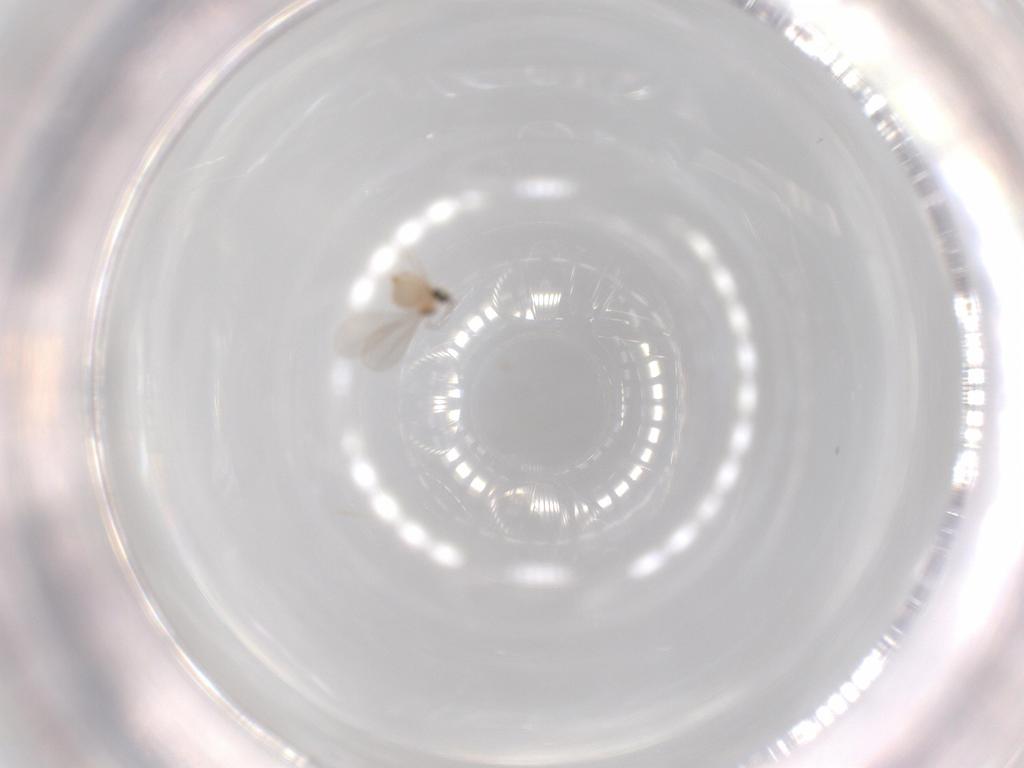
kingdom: Animalia
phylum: Arthropoda
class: Insecta
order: Diptera
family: Cecidomyiidae
